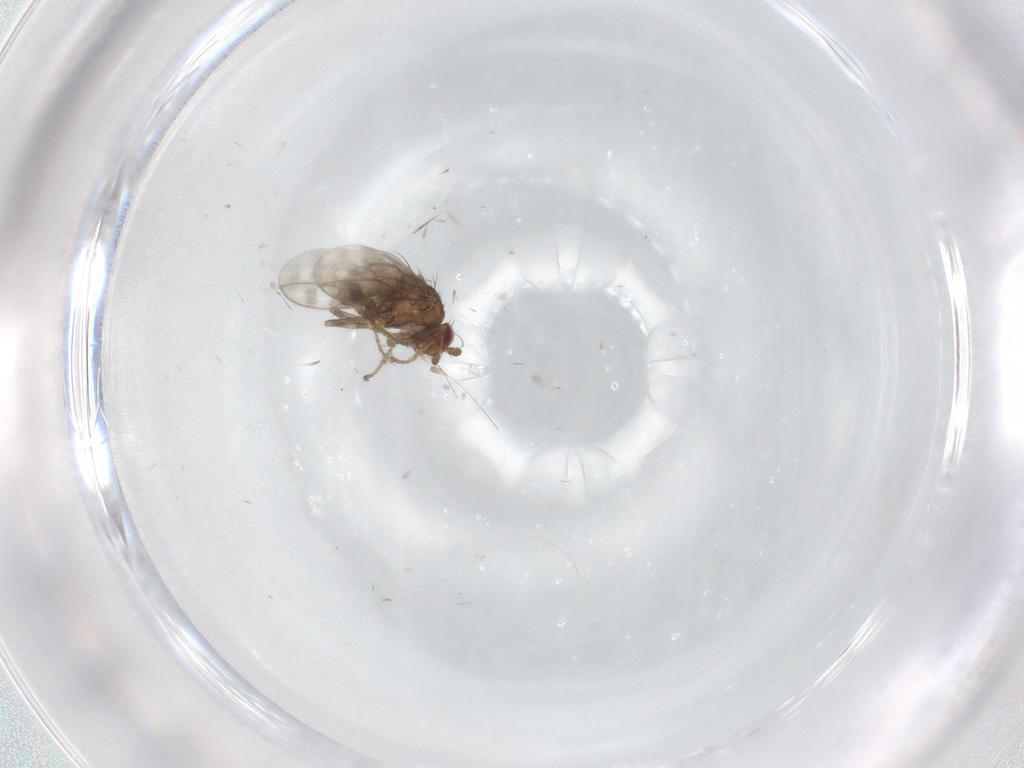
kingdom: Animalia
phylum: Arthropoda
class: Insecta
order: Diptera
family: Sphaeroceridae
